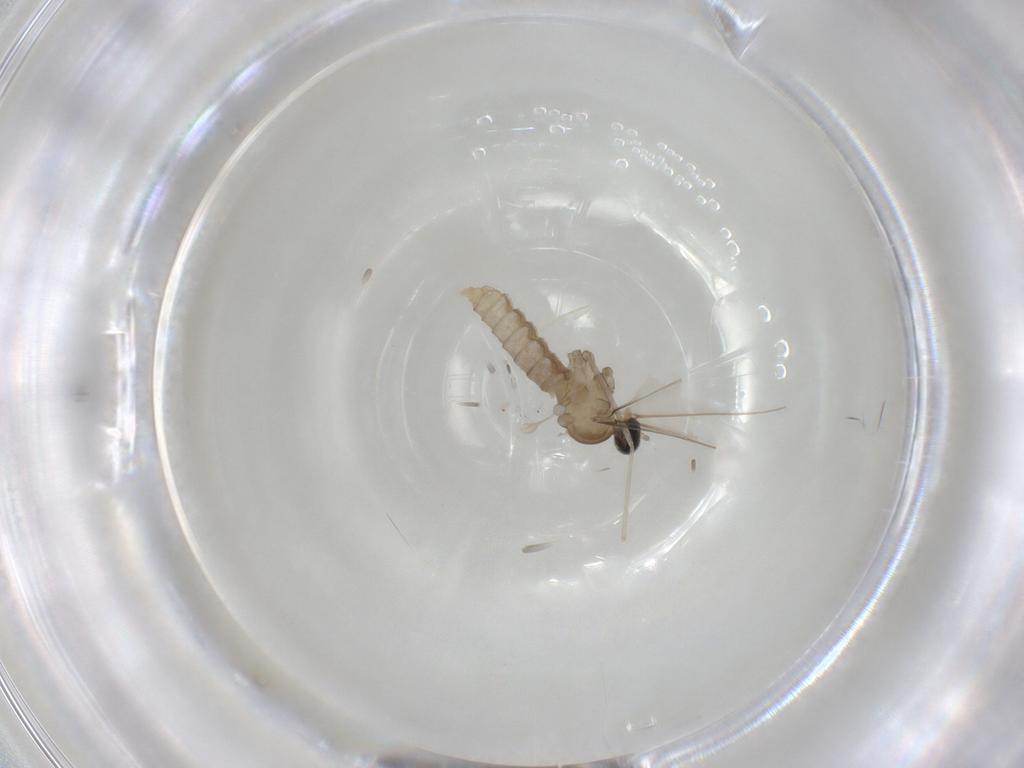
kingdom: Animalia
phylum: Arthropoda
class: Insecta
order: Diptera
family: Cecidomyiidae
